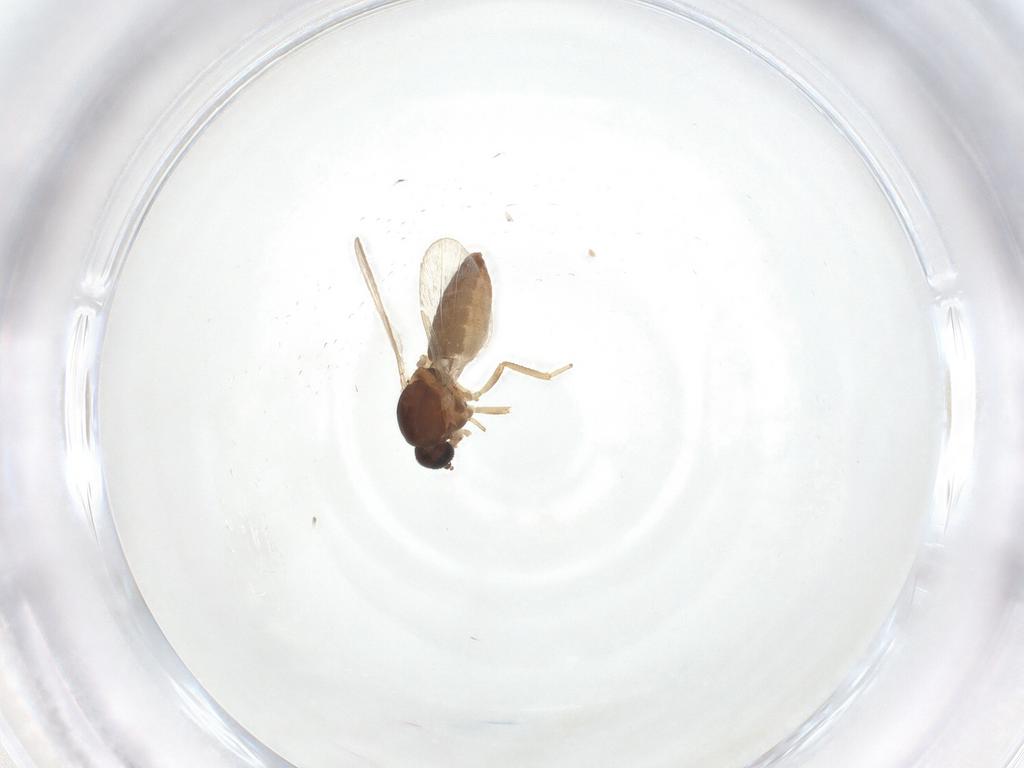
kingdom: Animalia
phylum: Arthropoda
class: Insecta
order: Diptera
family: Ceratopogonidae
